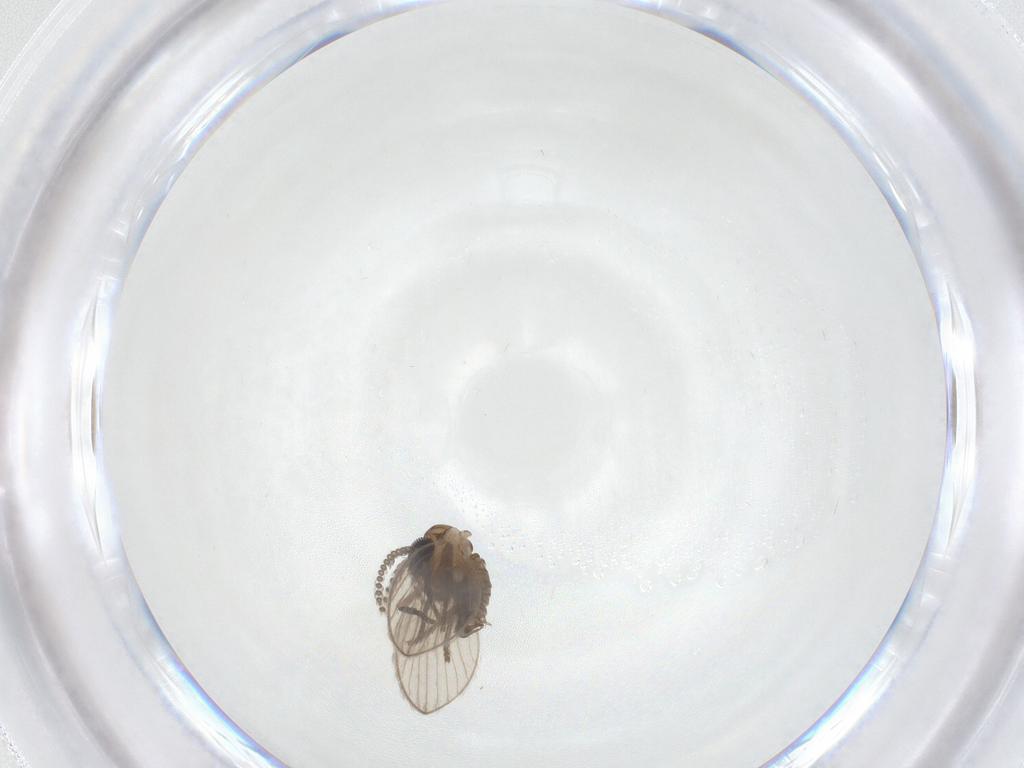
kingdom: Animalia
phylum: Arthropoda
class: Insecta
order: Diptera
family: Psychodidae
